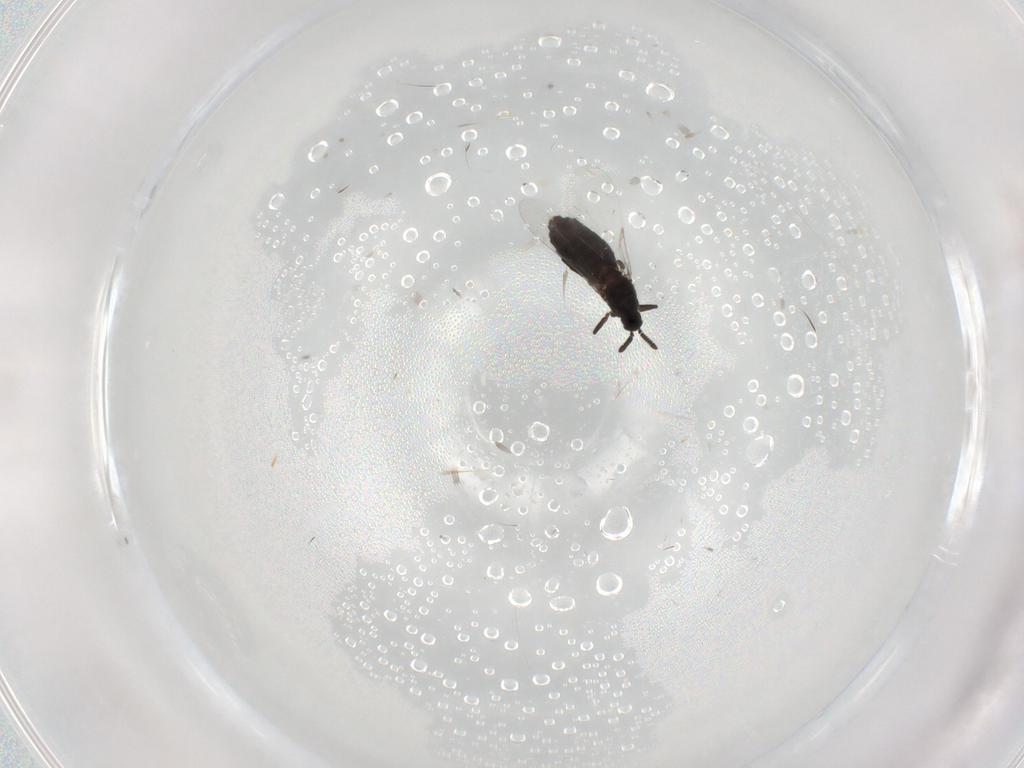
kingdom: Animalia
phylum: Arthropoda
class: Insecta
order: Diptera
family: Scatopsidae
